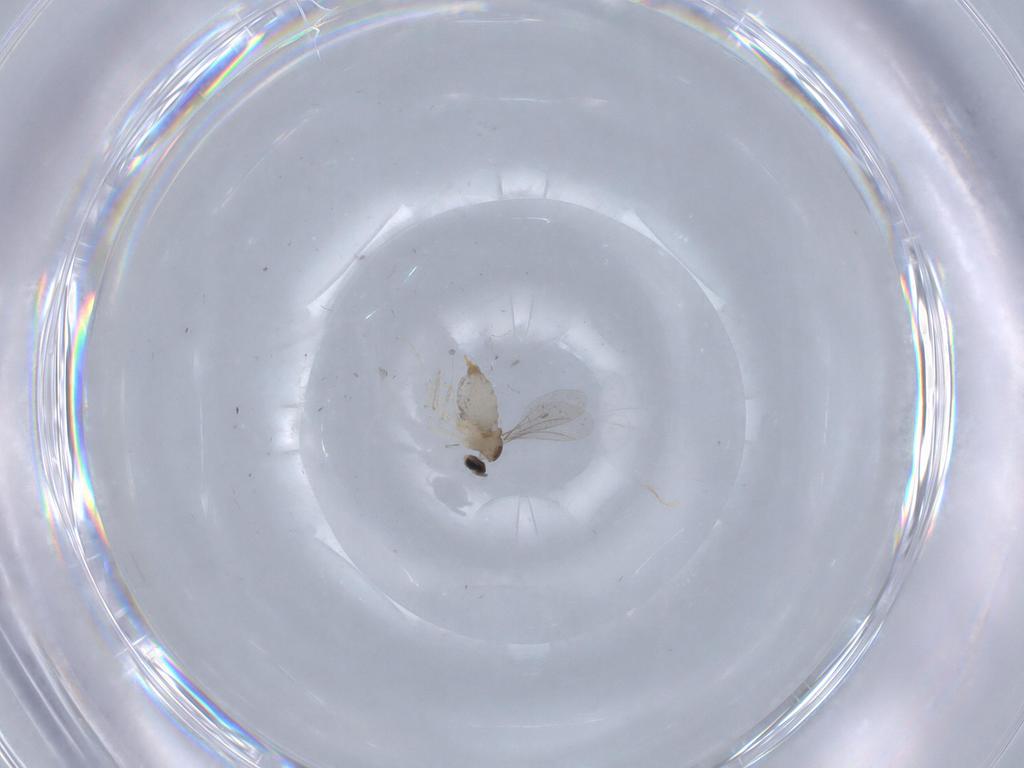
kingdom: Animalia
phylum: Arthropoda
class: Insecta
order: Diptera
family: Cecidomyiidae
